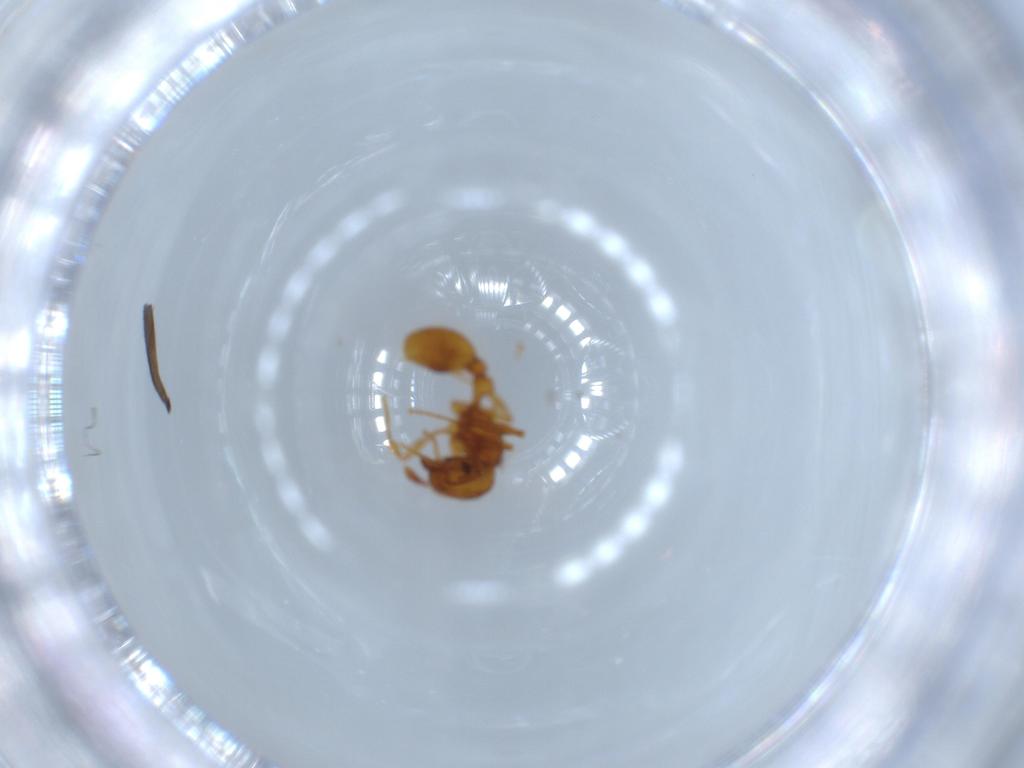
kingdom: Animalia
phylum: Arthropoda
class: Insecta
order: Hymenoptera
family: Formicidae
